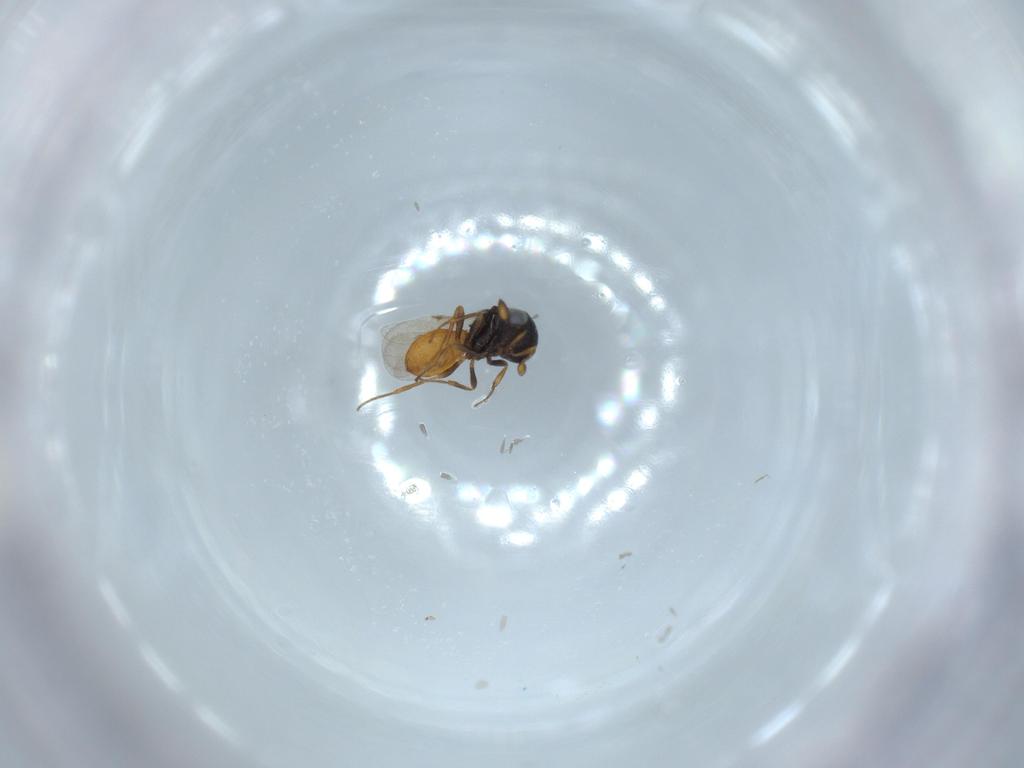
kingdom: Animalia
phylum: Arthropoda
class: Insecta
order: Hymenoptera
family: Scelionidae
